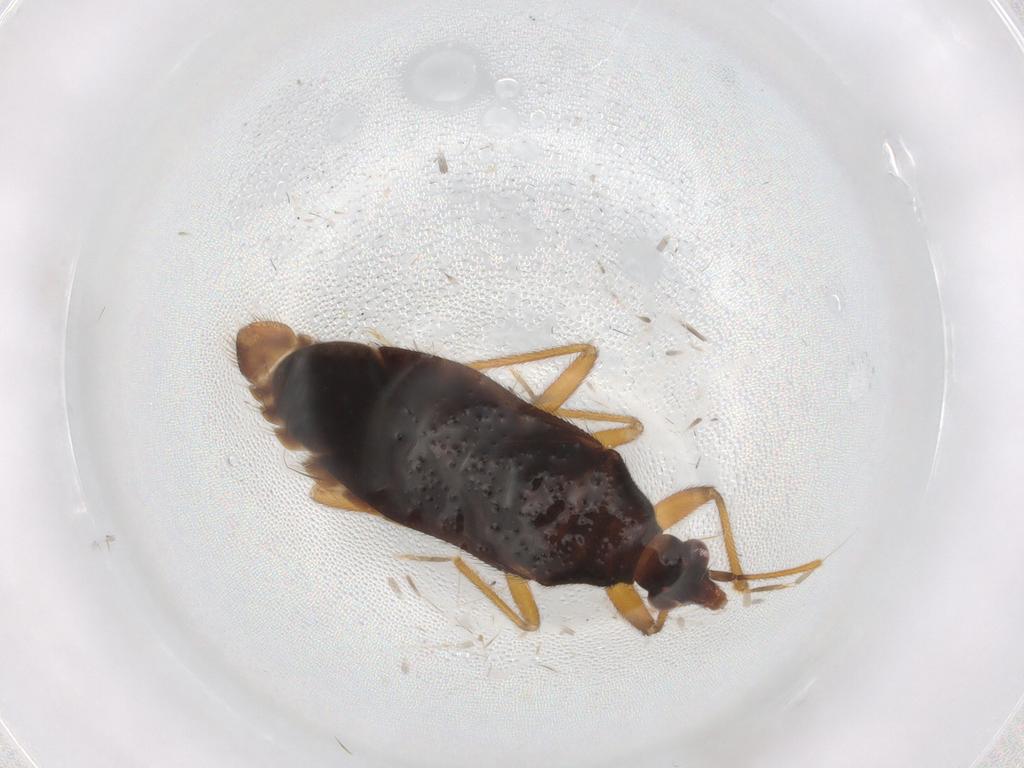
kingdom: Animalia
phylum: Arthropoda
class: Insecta
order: Hemiptera
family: Anthocoridae
